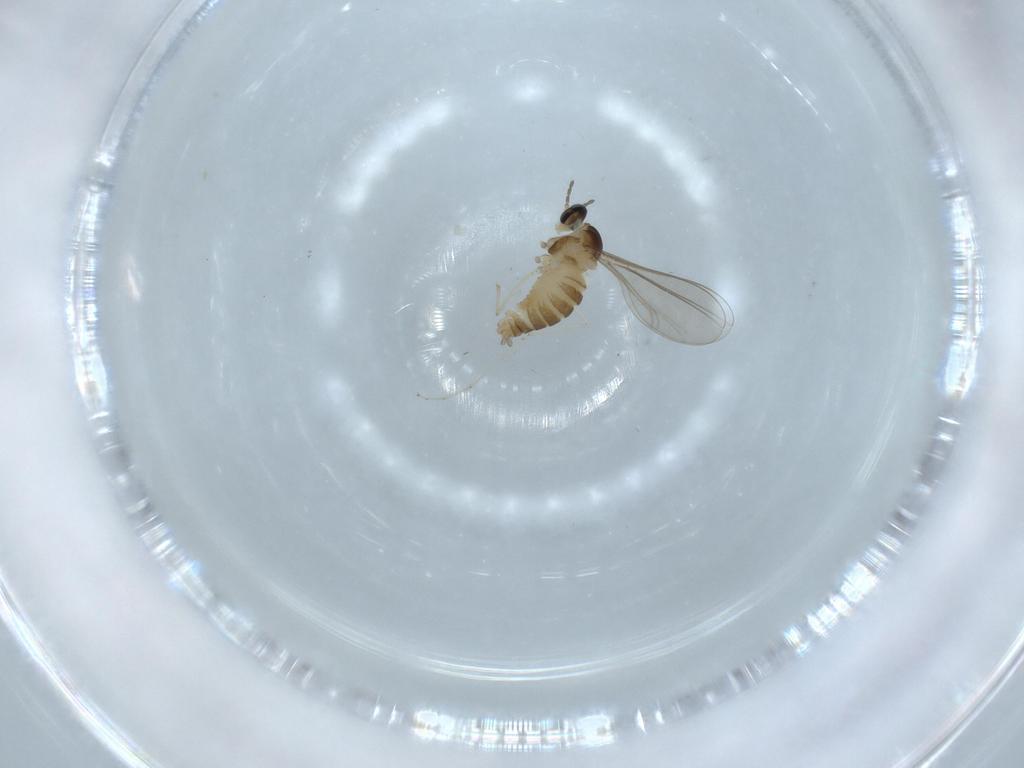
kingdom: Animalia
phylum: Arthropoda
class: Insecta
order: Diptera
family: Cecidomyiidae
